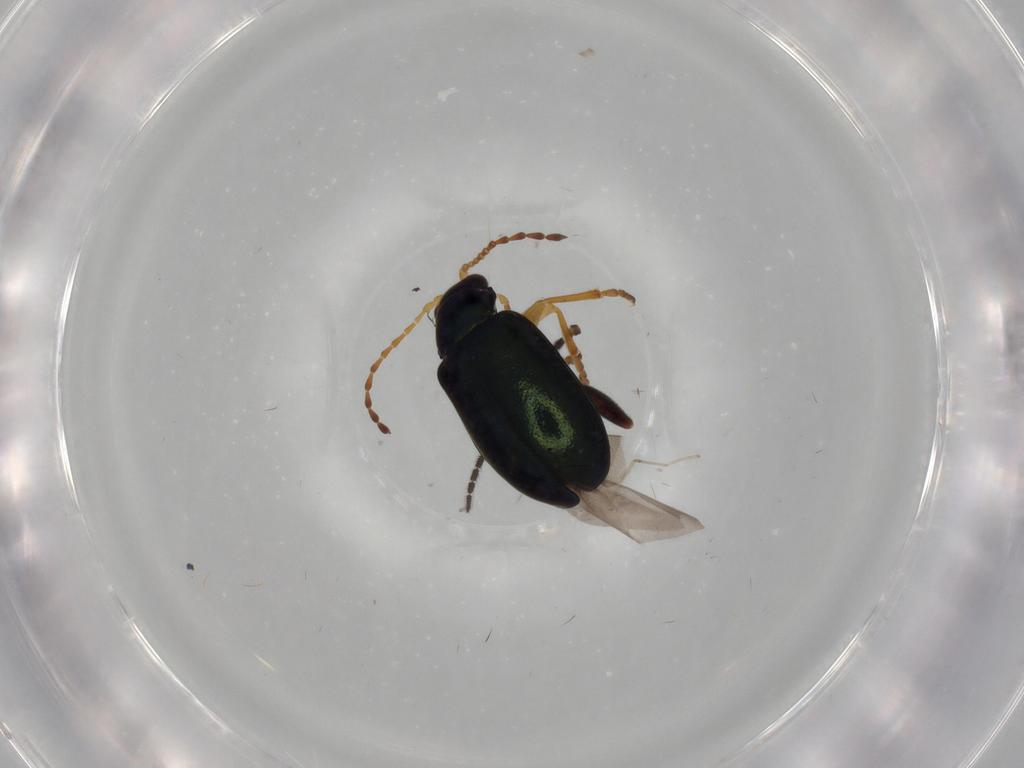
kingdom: Animalia
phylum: Arthropoda
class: Insecta
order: Coleoptera
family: Chrysomelidae
